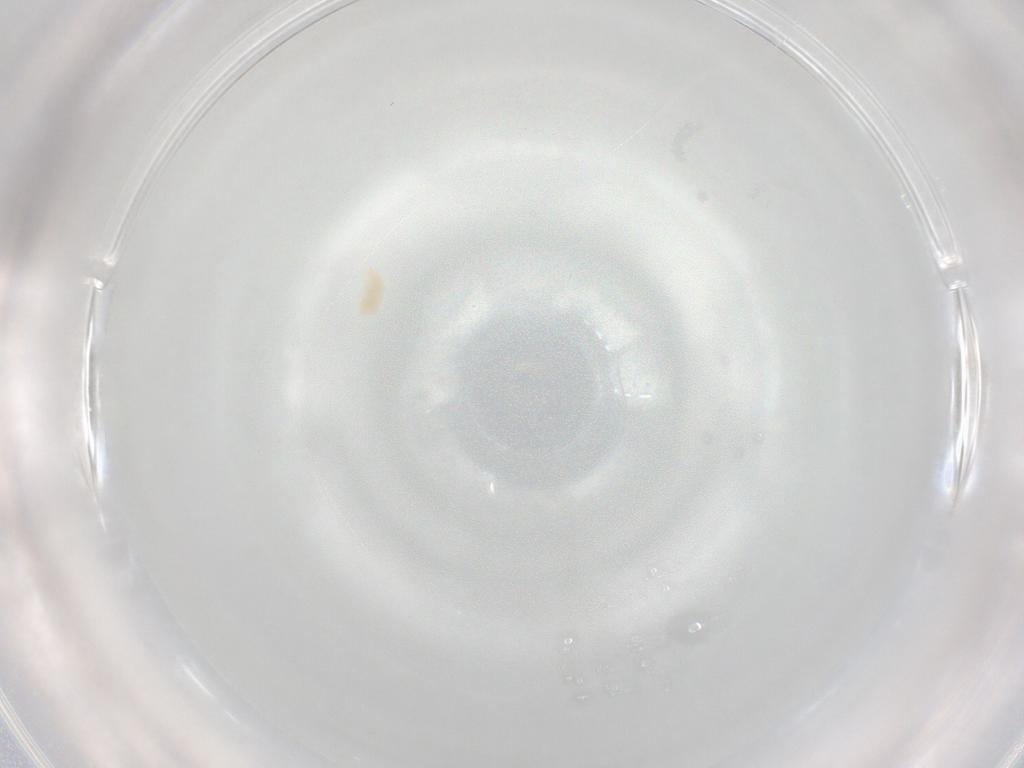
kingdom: Animalia
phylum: Arthropoda
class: Arachnida
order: Trombidiformes
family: Eupodidae
